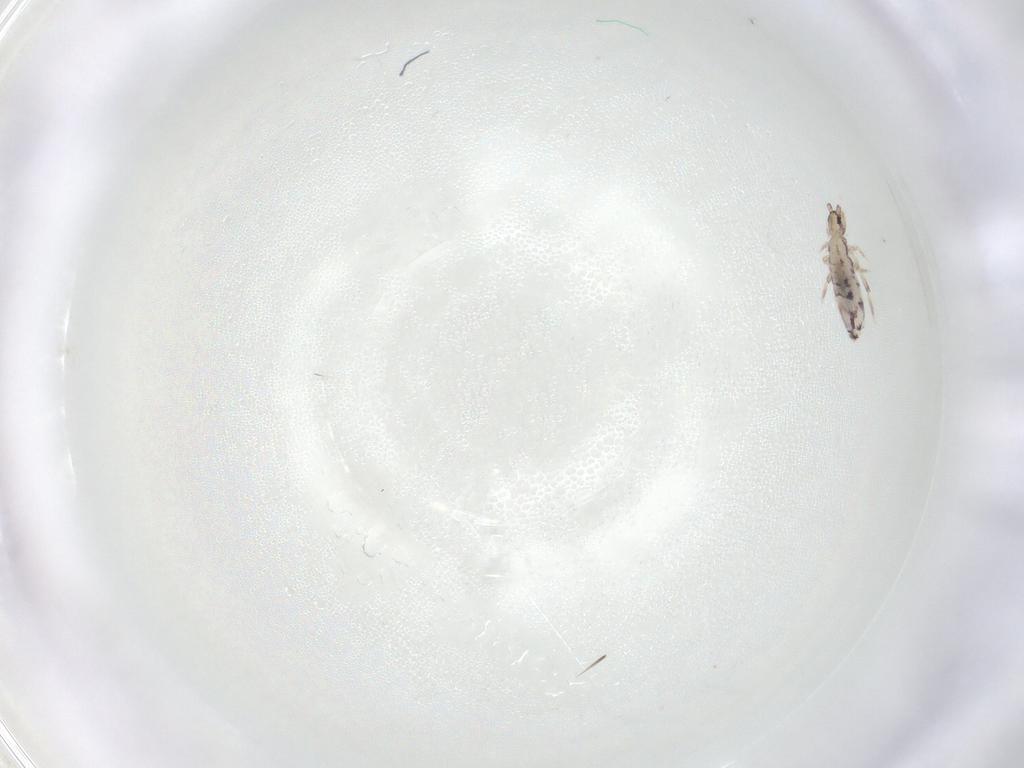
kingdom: Animalia
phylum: Arthropoda
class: Collembola
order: Entomobryomorpha
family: Entomobryidae
